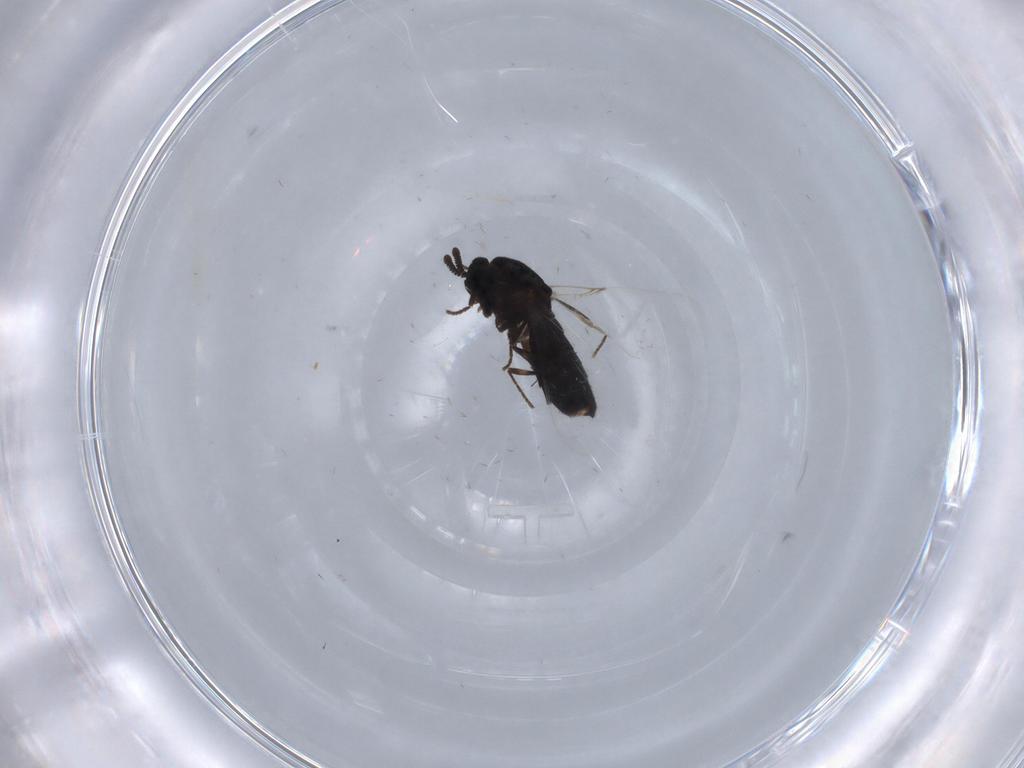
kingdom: Animalia
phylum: Arthropoda
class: Insecta
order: Diptera
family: Scatopsidae
